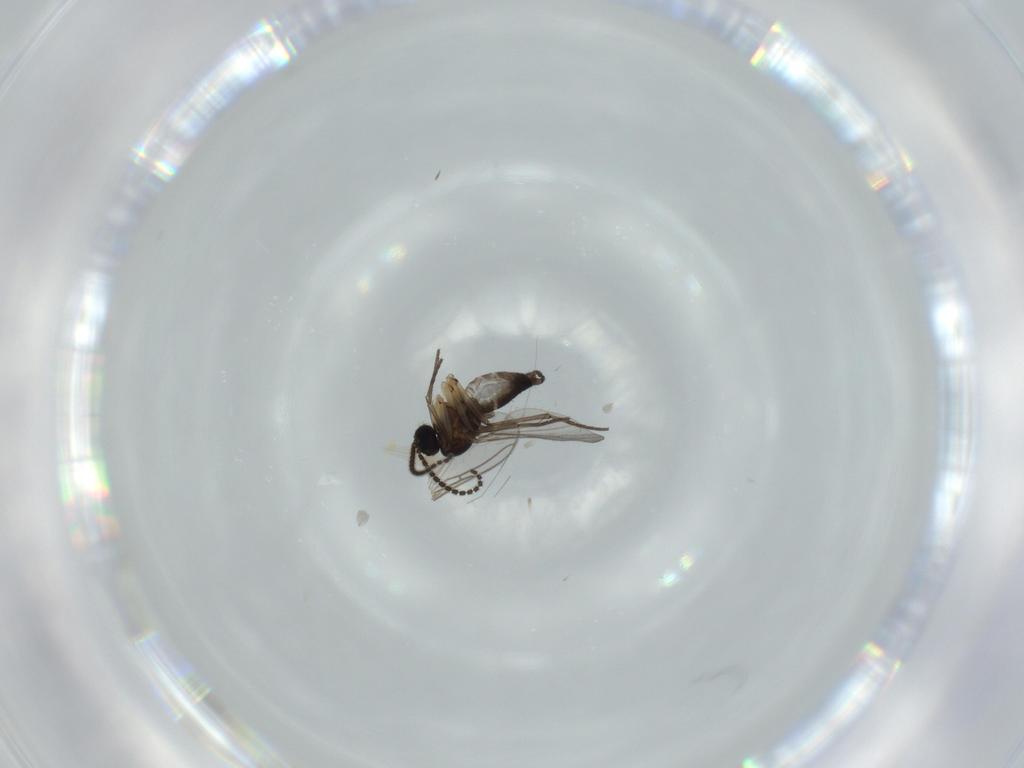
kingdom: Animalia
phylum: Arthropoda
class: Insecta
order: Diptera
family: Sciaridae
